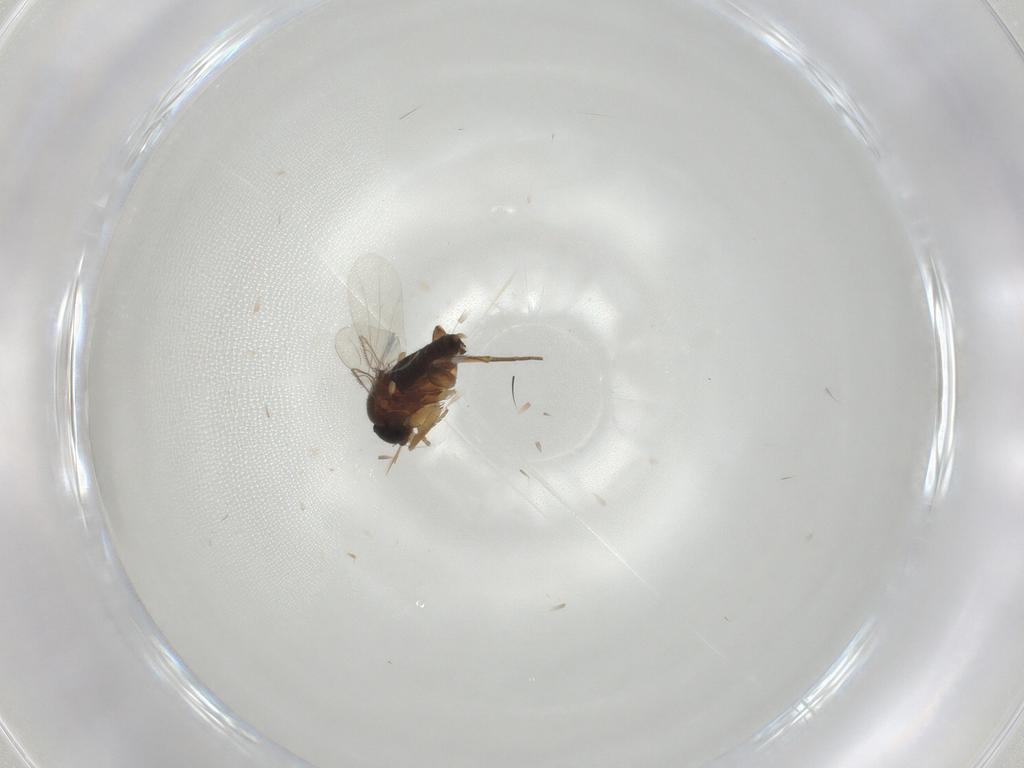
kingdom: Animalia
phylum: Arthropoda
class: Insecta
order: Diptera
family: Phoridae
